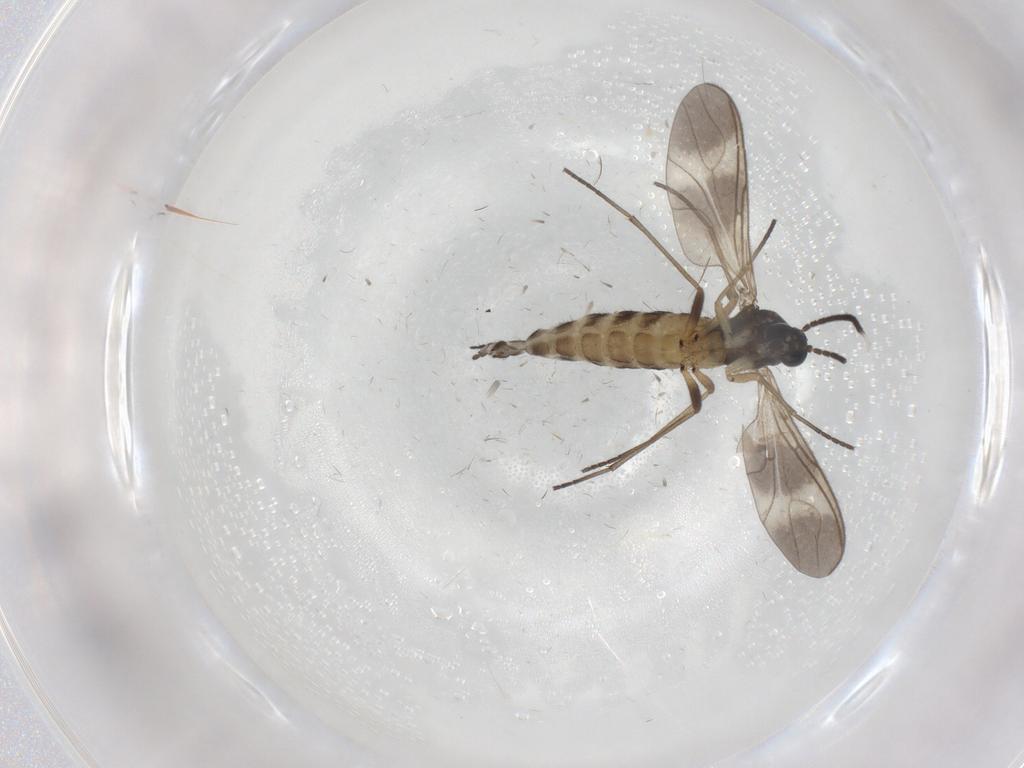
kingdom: Animalia
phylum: Arthropoda
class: Insecta
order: Diptera
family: Sciaridae
